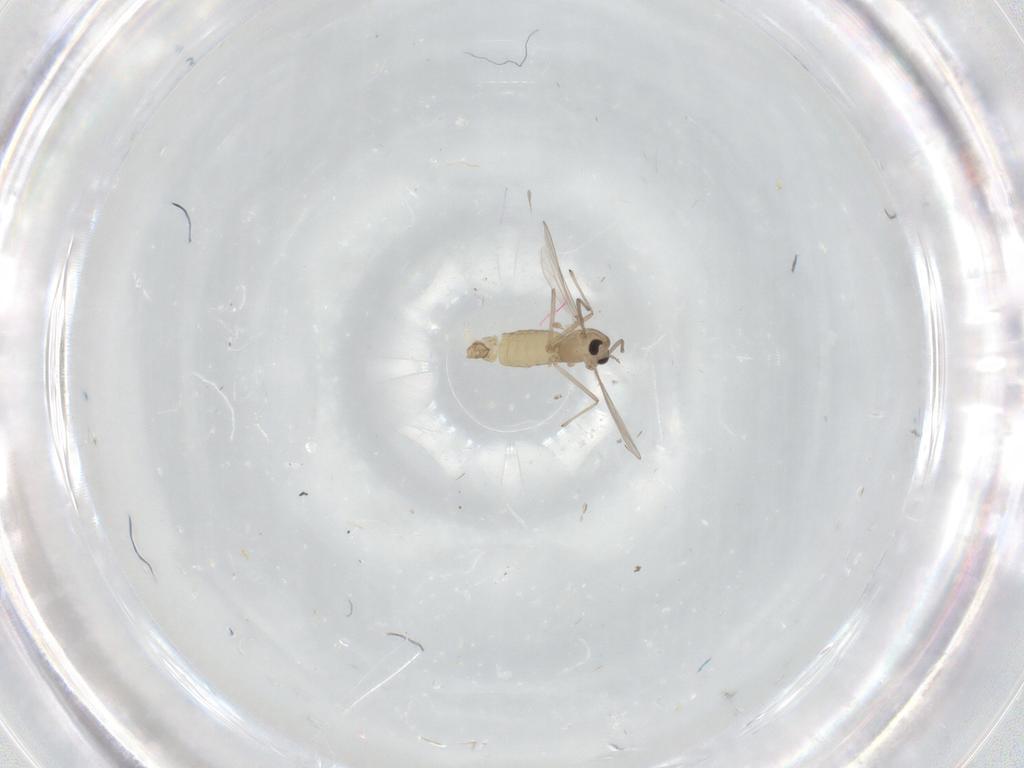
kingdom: Animalia
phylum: Arthropoda
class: Insecta
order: Diptera
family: Chironomidae
